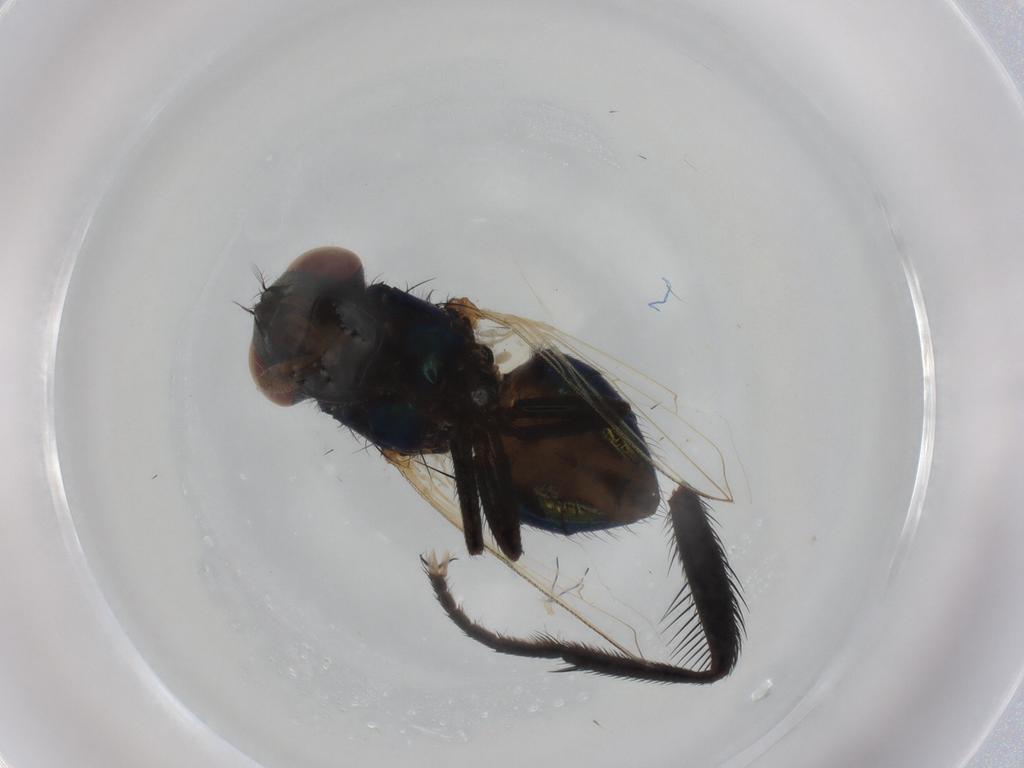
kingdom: Animalia
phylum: Arthropoda
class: Insecta
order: Diptera
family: Muscidae
